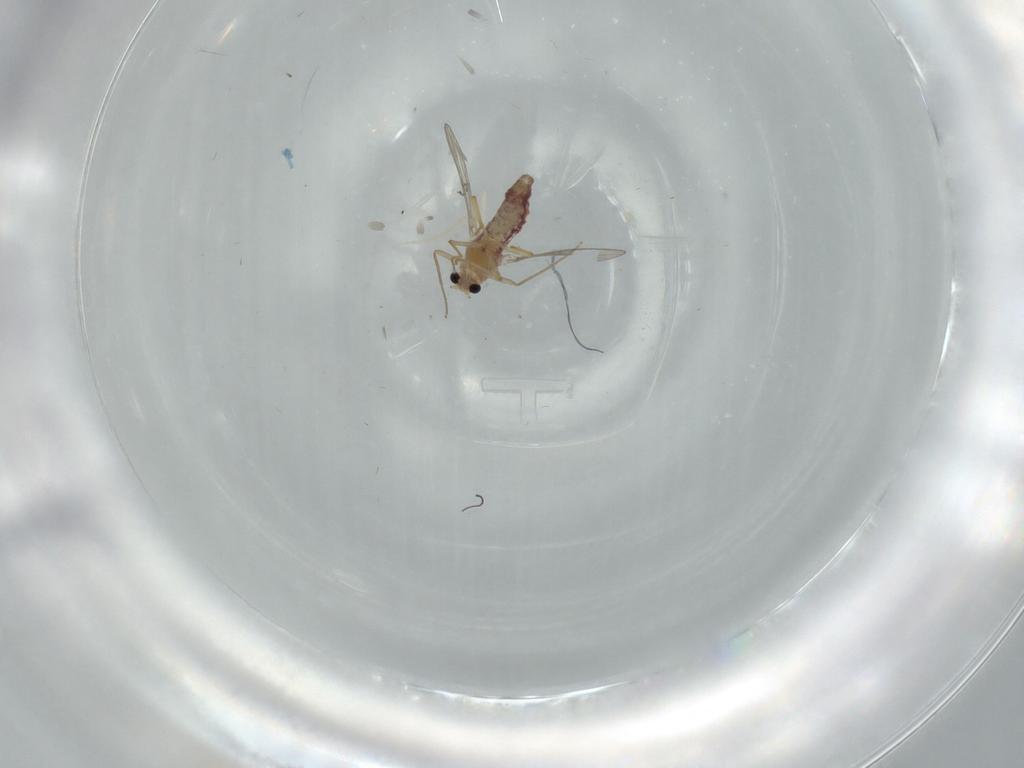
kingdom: Animalia
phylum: Arthropoda
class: Insecta
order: Diptera
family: Chironomidae
